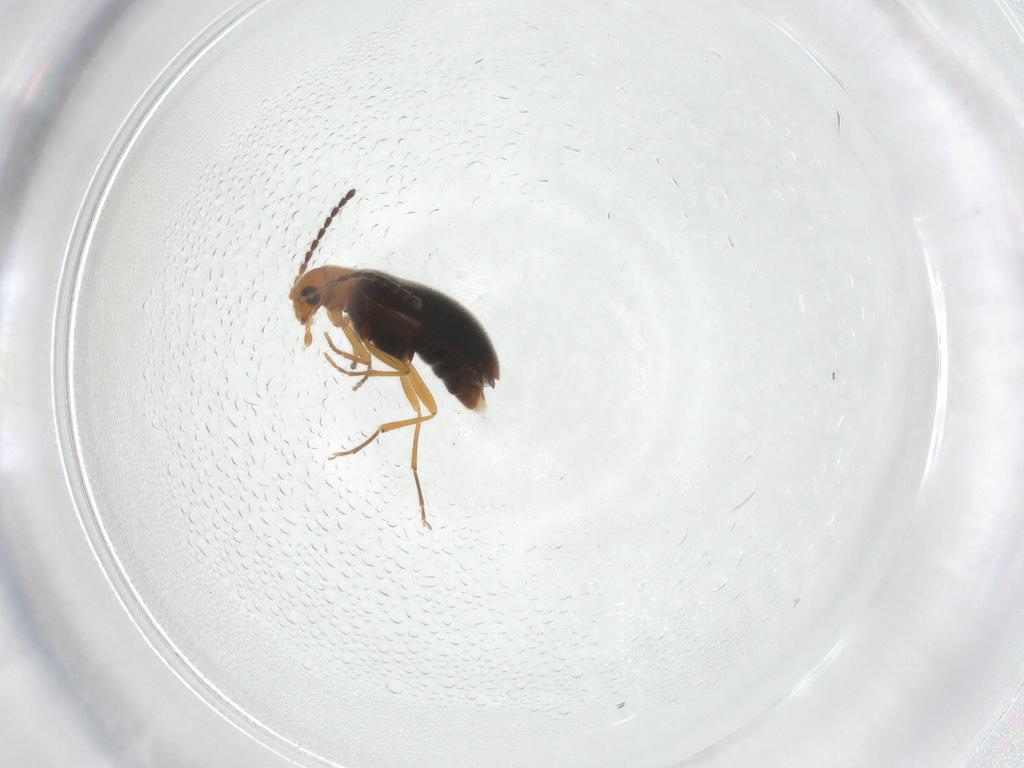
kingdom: Animalia
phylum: Arthropoda
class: Insecta
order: Coleoptera
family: Melandryidae
